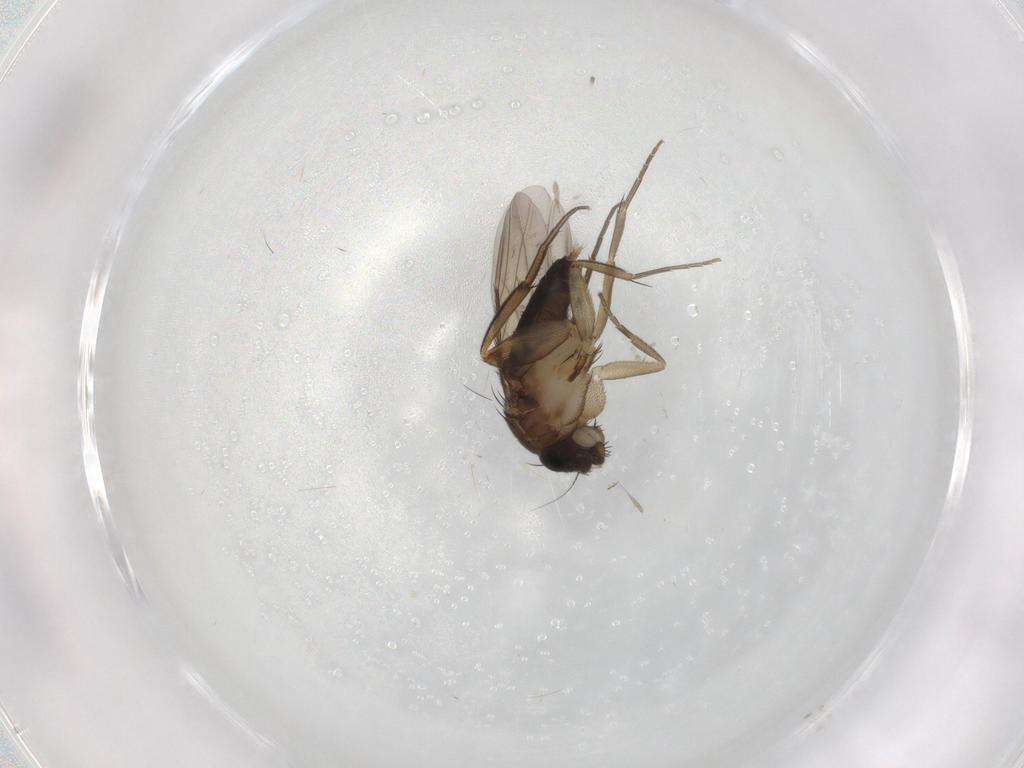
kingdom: Animalia
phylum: Arthropoda
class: Insecta
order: Diptera
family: Phoridae
